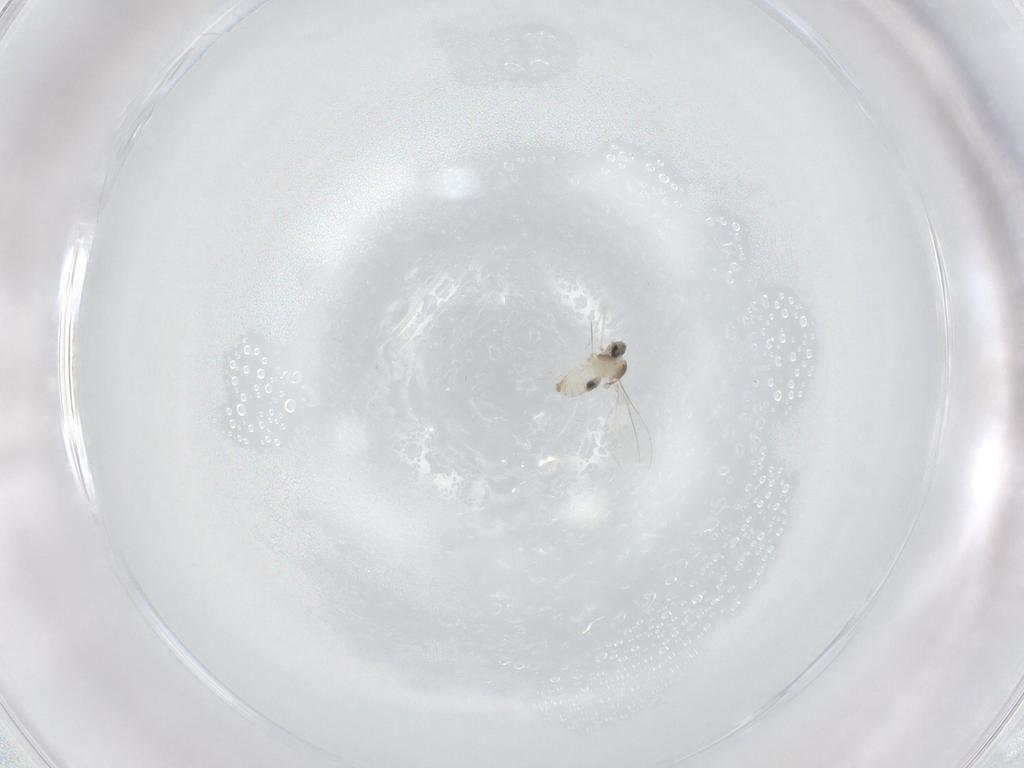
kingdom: Animalia
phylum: Arthropoda
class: Insecta
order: Diptera
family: Cecidomyiidae
